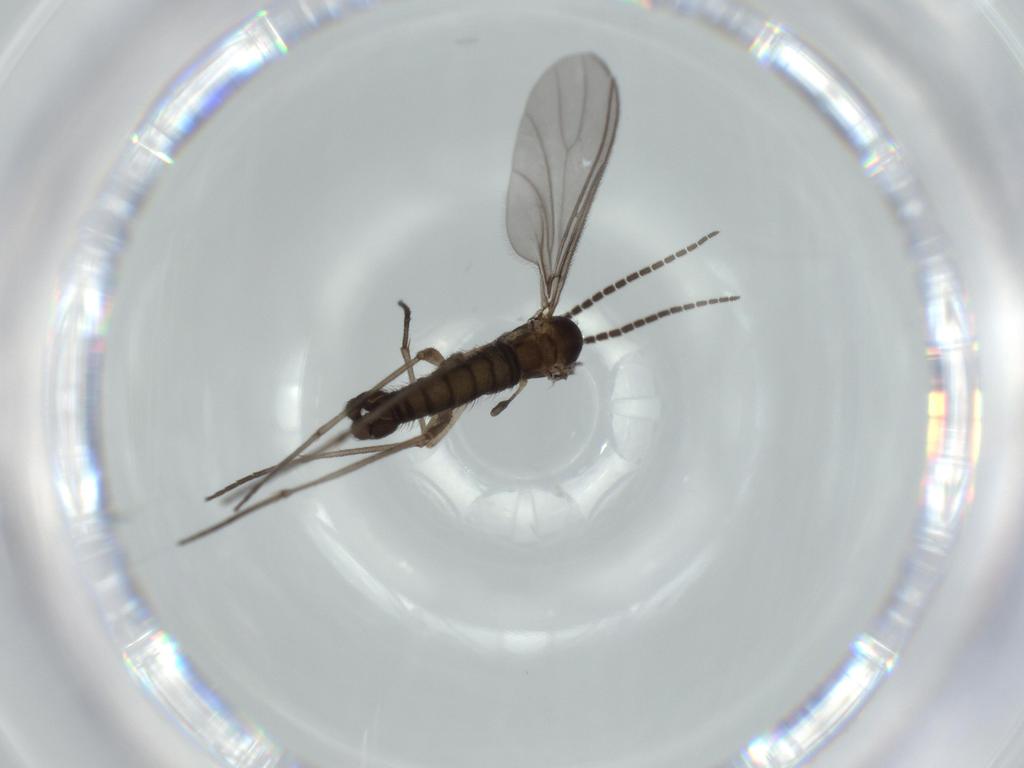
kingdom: Animalia
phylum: Arthropoda
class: Insecta
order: Diptera
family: Sciaridae
